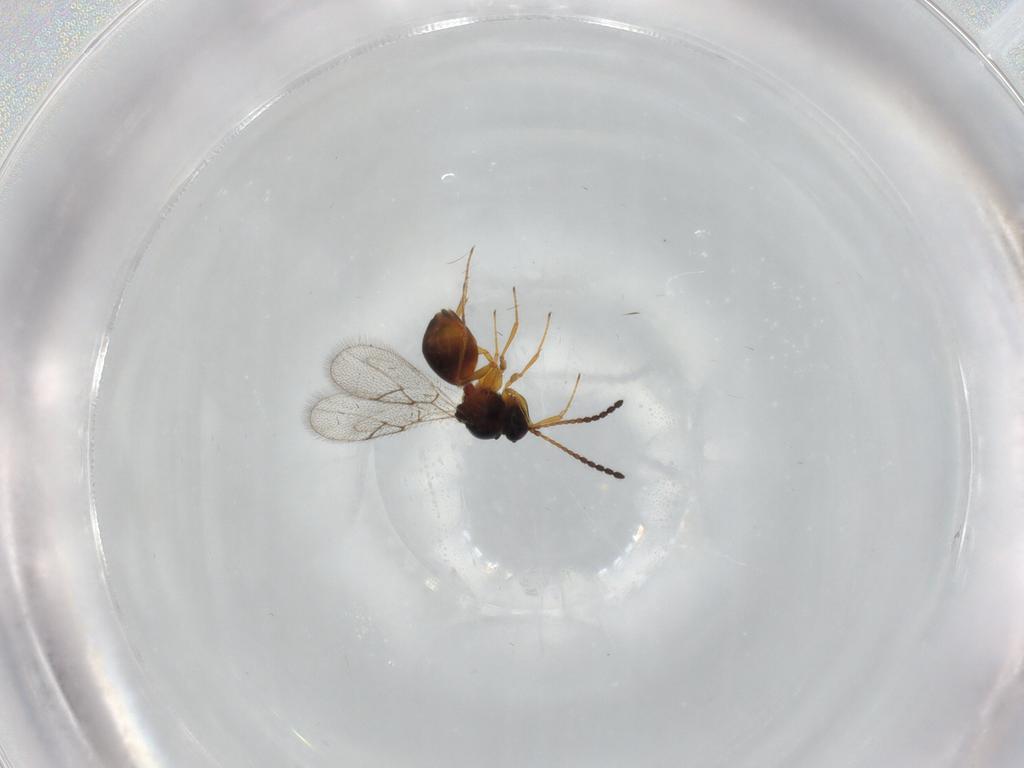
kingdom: Animalia
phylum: Arthropoda
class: Insecta
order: Hymenoptera
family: Figitidae
